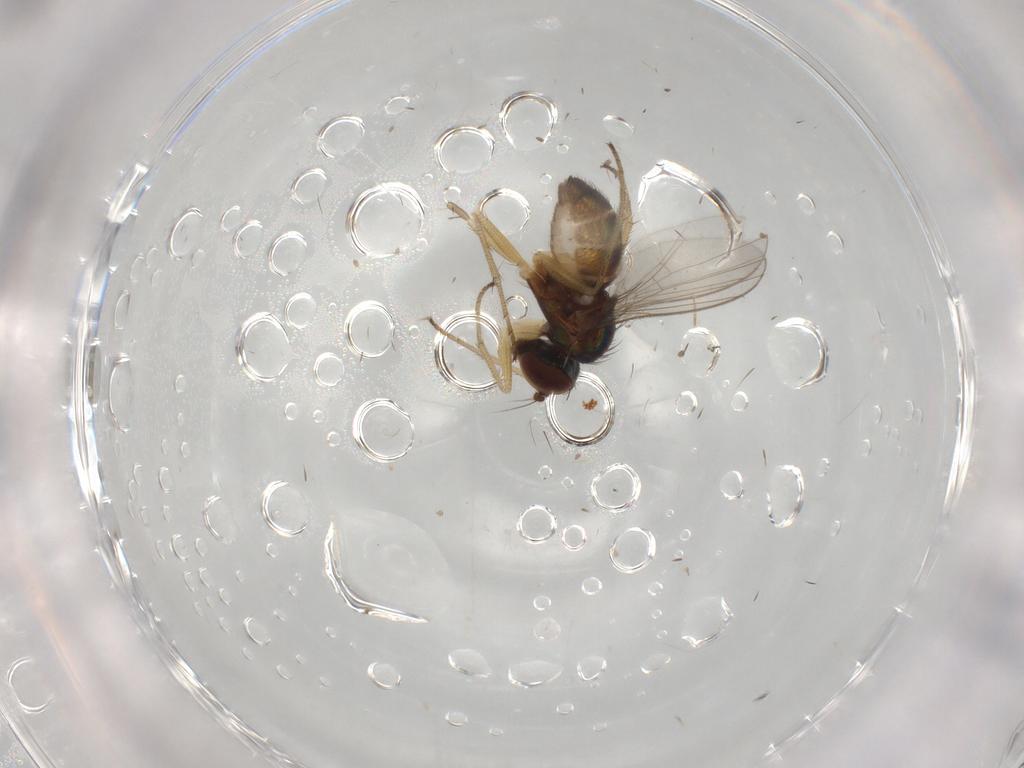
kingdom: Animalia
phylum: Arthropoda
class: Insecta
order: Diptera
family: Dolichopodidae
